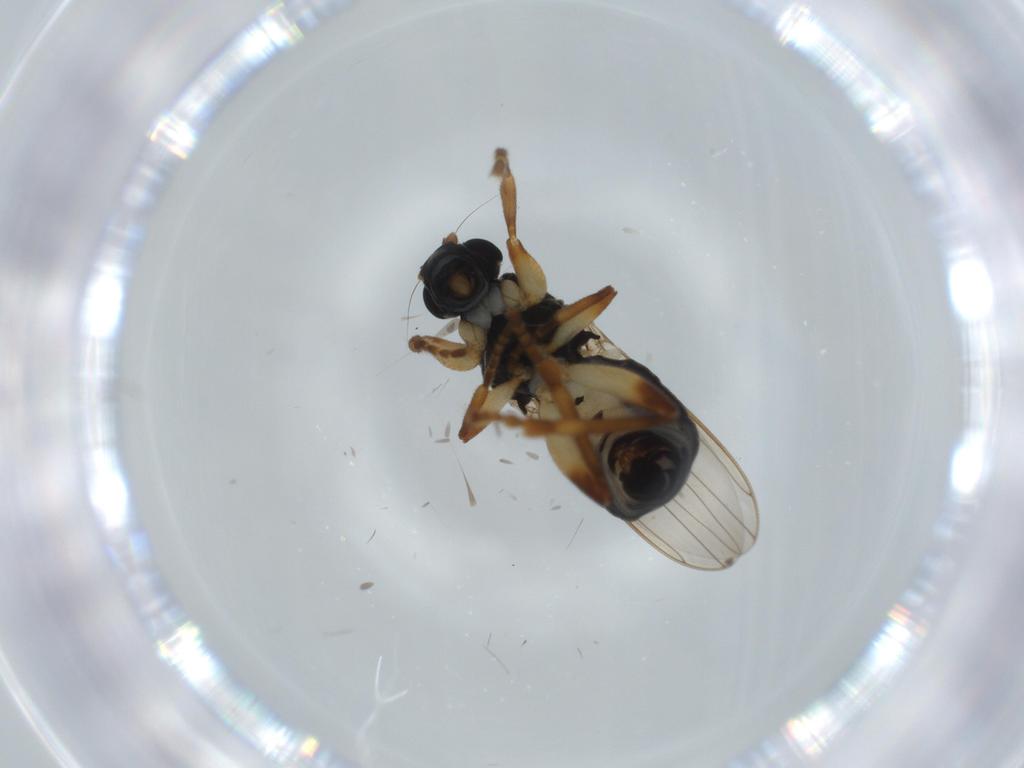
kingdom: Animalia
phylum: Arthropoda
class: Insecta
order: Diptera
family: Sphaeroceridae
